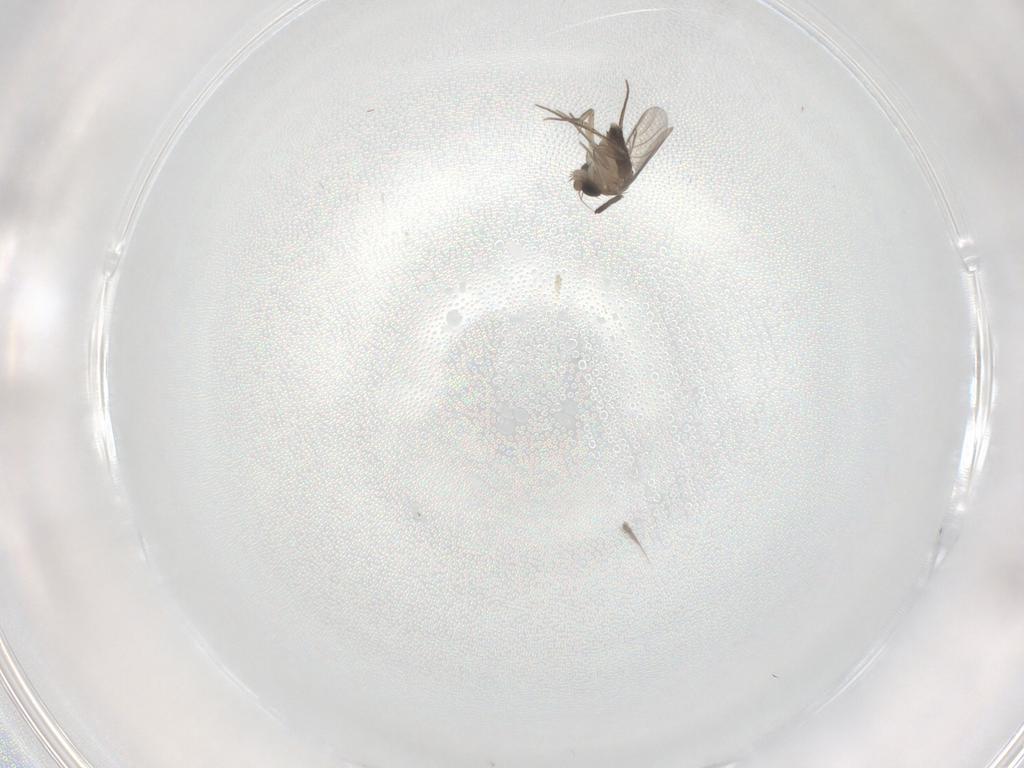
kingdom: Animalia
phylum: Arthropoda
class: Insecta
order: Diptera
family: Phoridae
